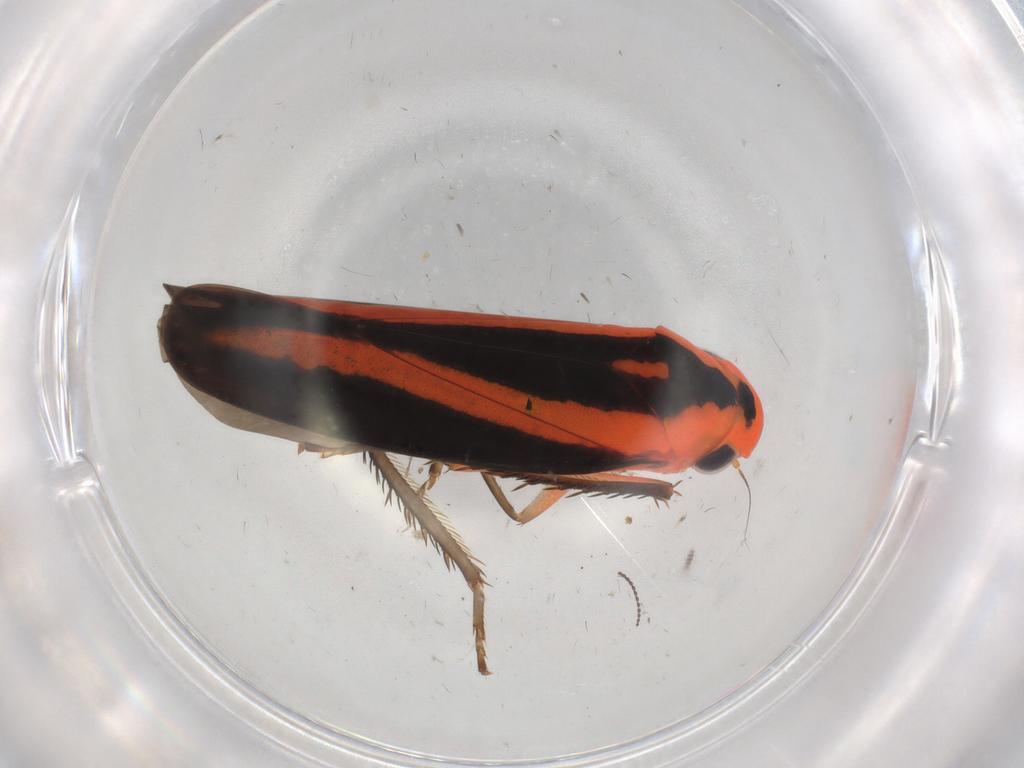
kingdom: Animalia
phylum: Arthropoda
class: Insecta
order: Hemiptera
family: Cicadellidae
